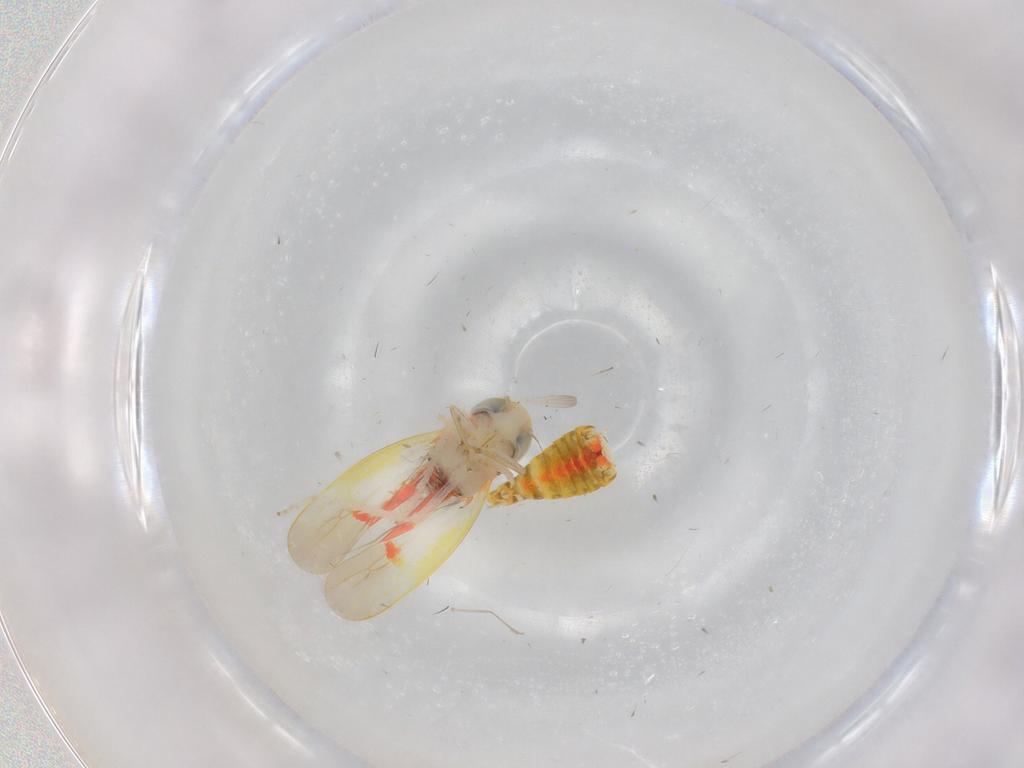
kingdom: Animalia
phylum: Arthropoda
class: Insecta
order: Hemiptera
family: Cicadellidae
